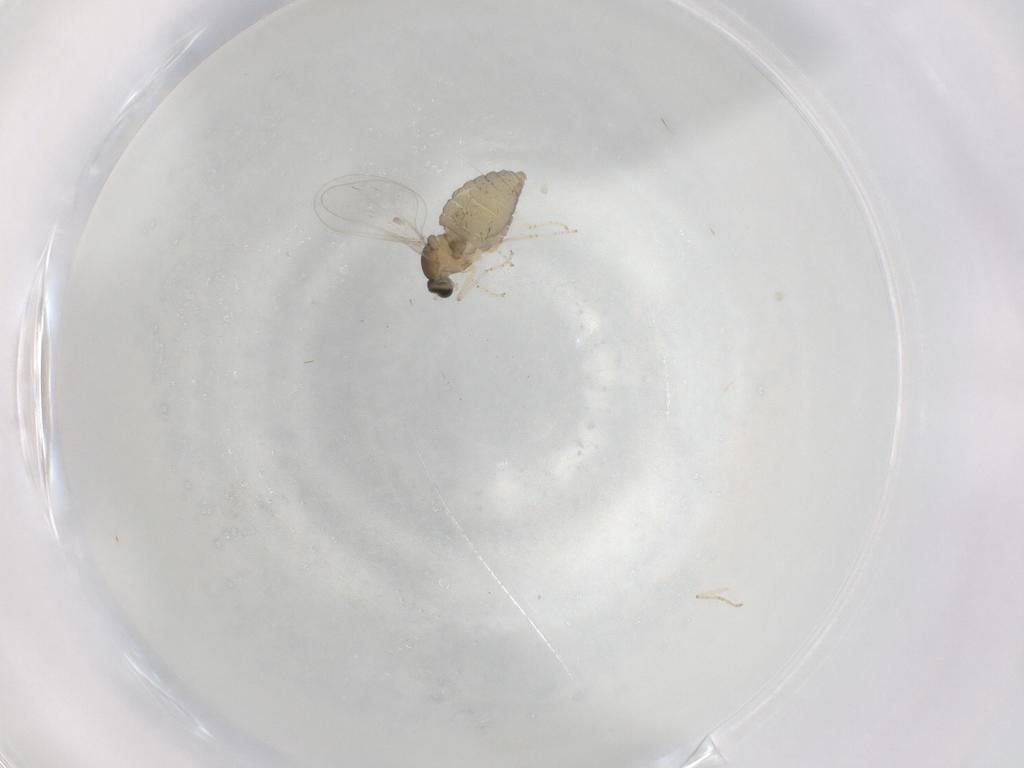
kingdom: Animalia
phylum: Arthropoda
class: Insecta
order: Diptera
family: Cecidomyiidae
